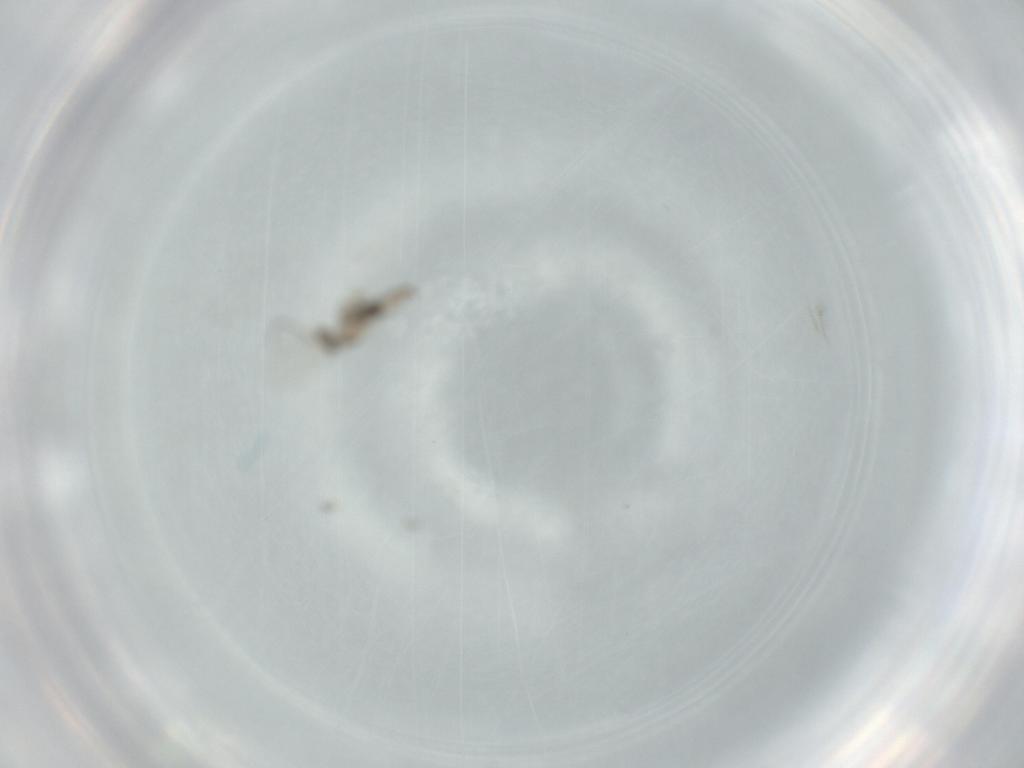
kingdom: Animalia
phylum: Arthropoda
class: Insecta
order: Diptera
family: Cecidomyiidae
